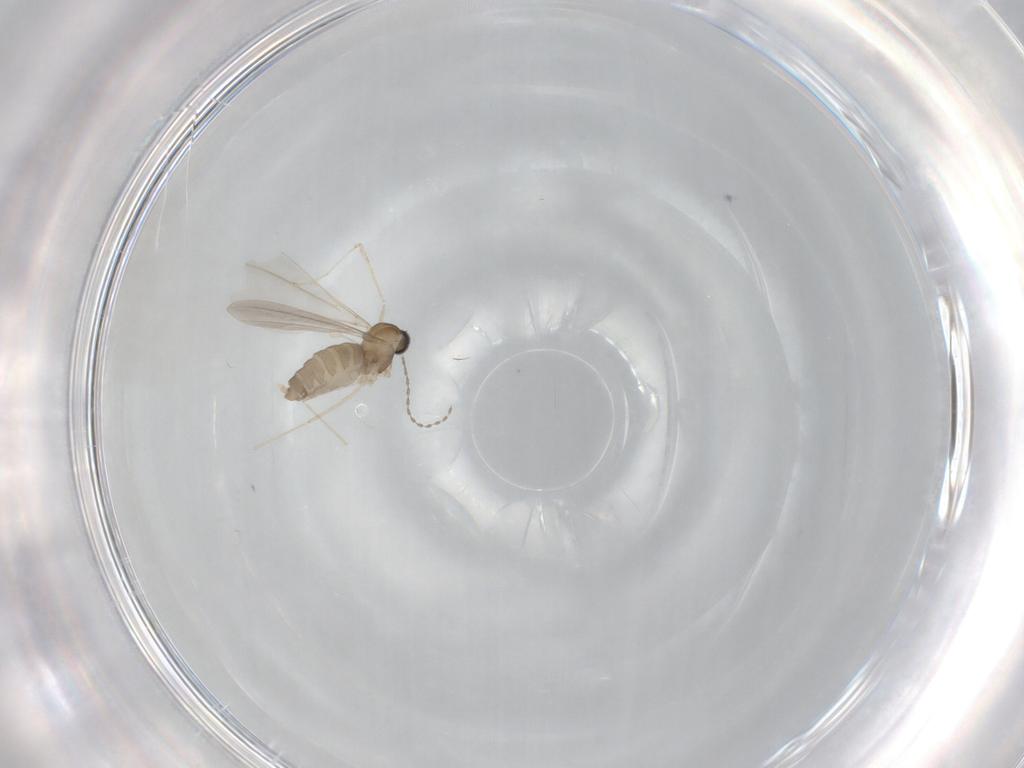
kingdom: Animalia
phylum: Arthropoda
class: Insecta
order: Diptera
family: Cecidomyiidae
